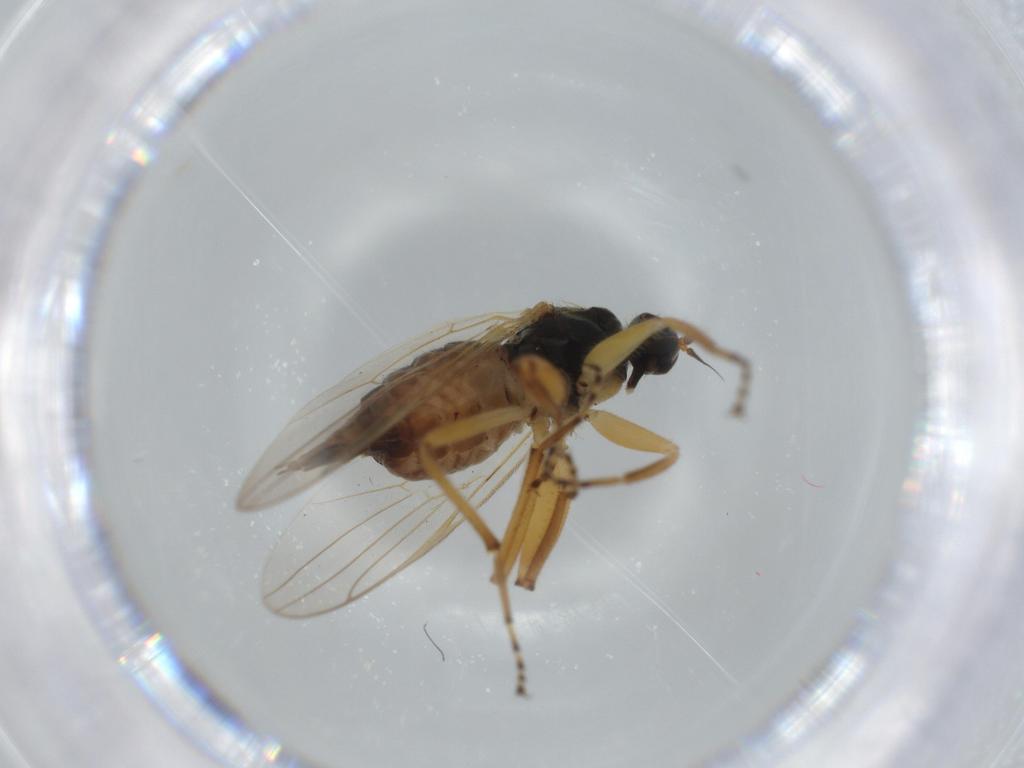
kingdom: Animalia
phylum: Arthropoda
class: Insecta
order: Diptera
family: Hybotidae
